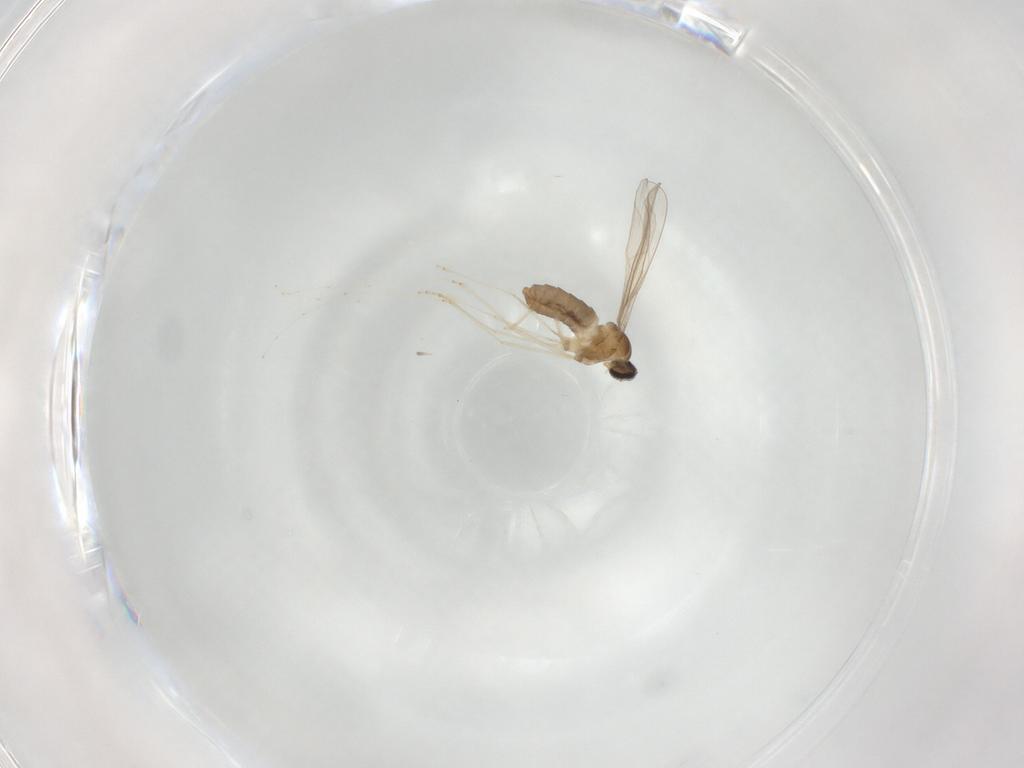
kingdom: Animalia
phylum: Arthropoda
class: Insecta
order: Diptera
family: Cecidomyiidae
